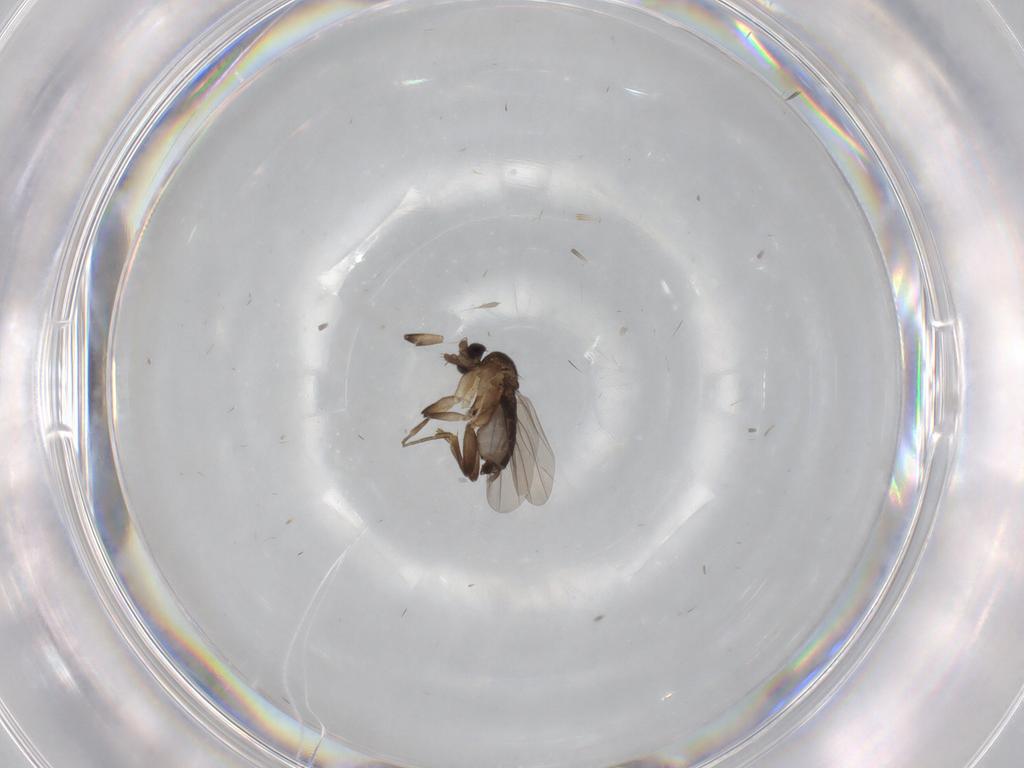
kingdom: Animalia
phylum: Arthropoda
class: Insecta
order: Diptera
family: Phoridae
